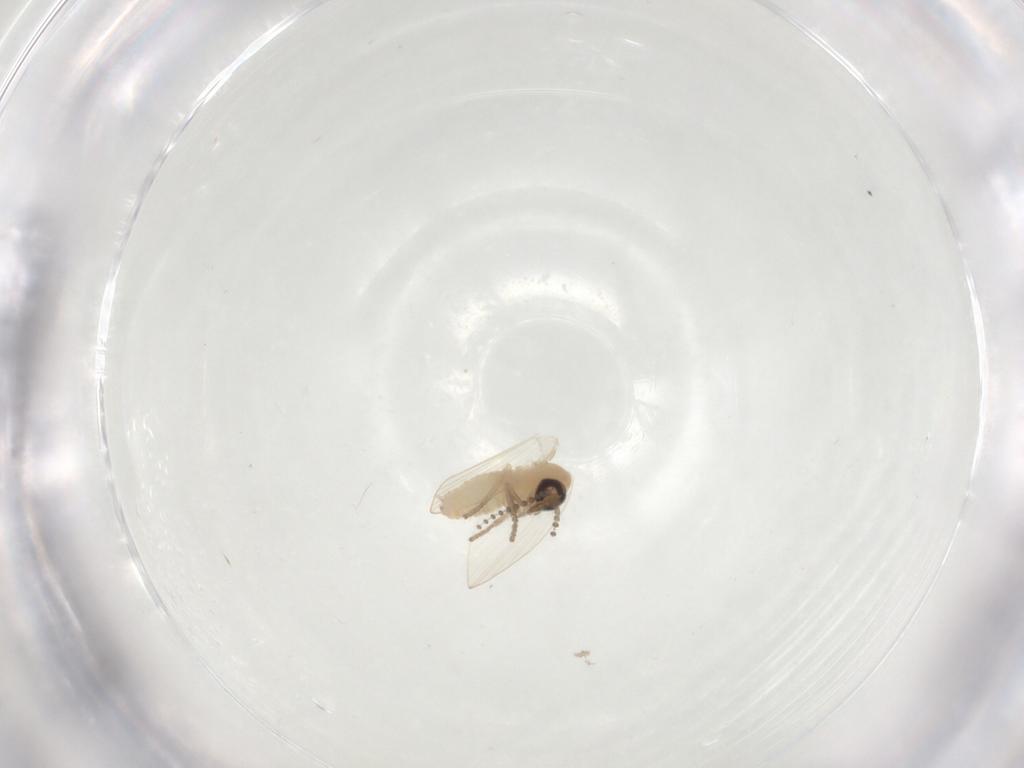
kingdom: Animalia
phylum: Arthropoda
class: Insecta
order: Diptera
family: Psychodidae
